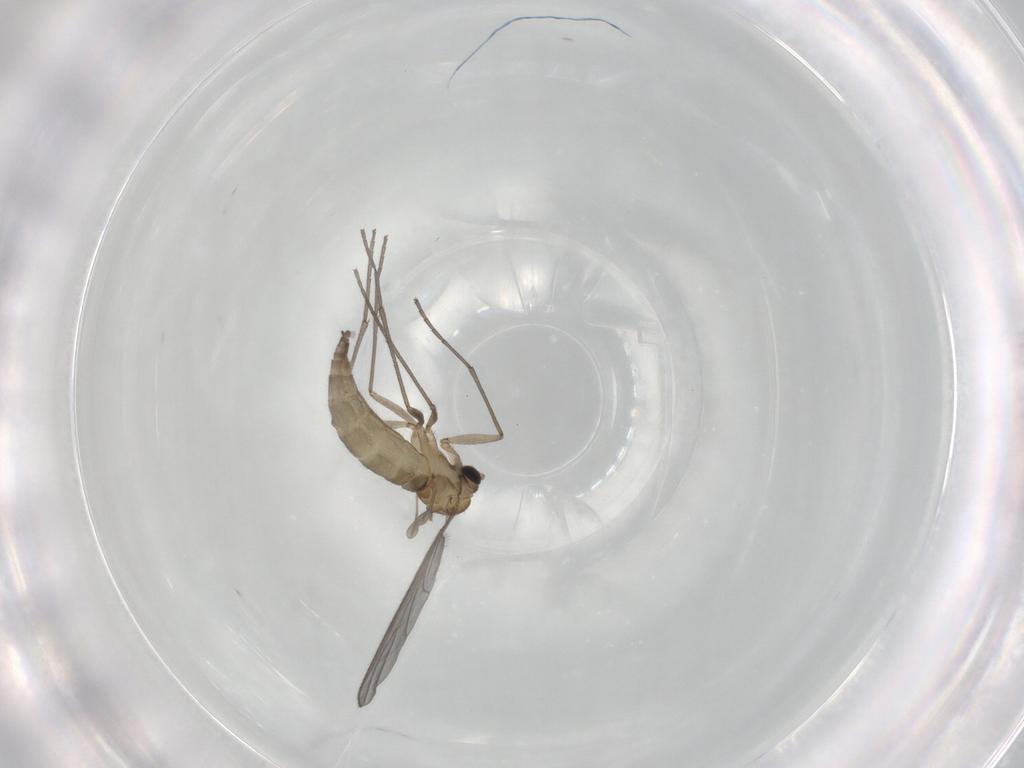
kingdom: Animalia
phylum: Arthropoda
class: Insecta
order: Diptera
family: Sciaridae
